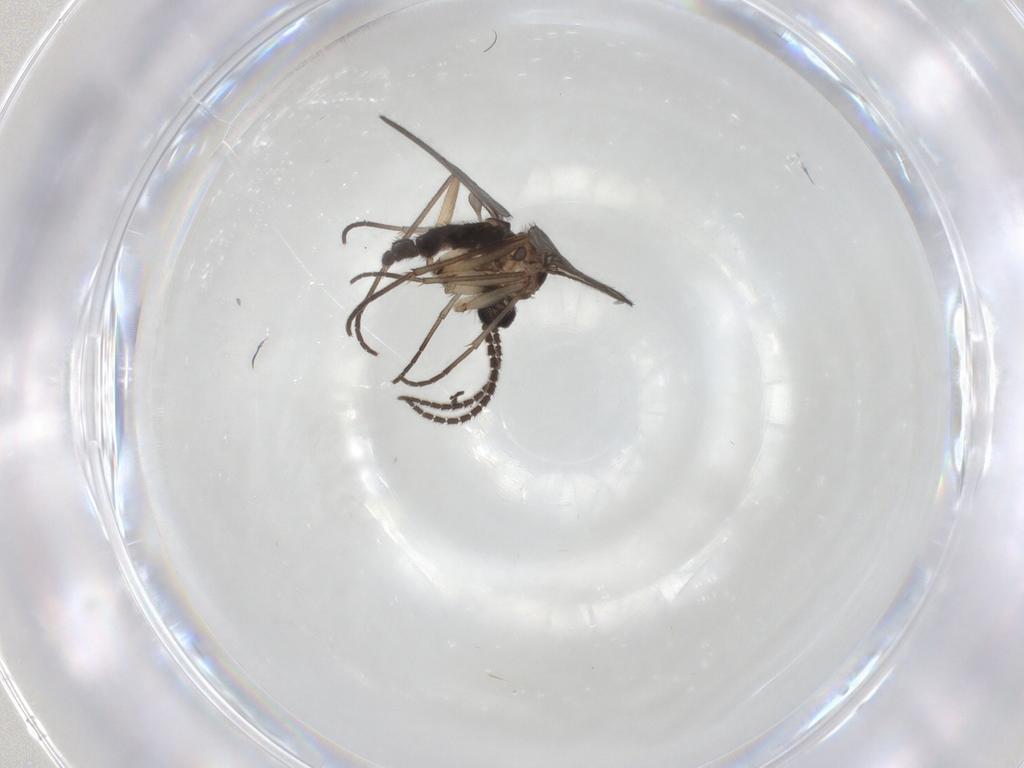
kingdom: Animalia
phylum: Arthropoda
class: Insecta
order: Diptera
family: Sciaridae
